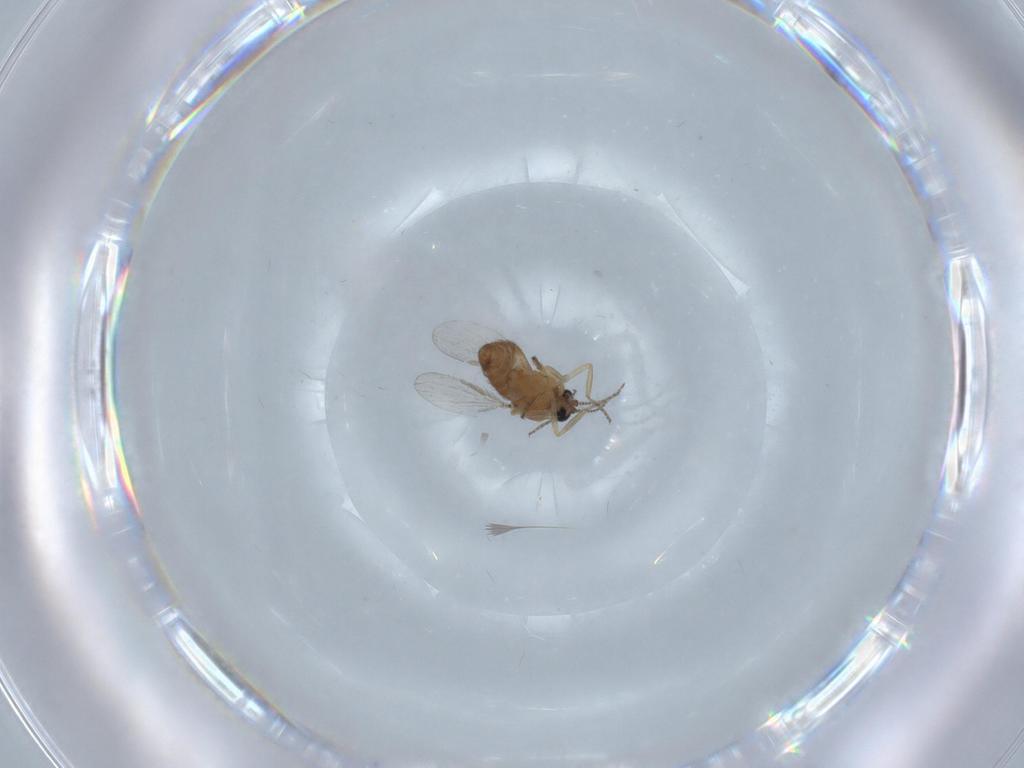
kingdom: Animalia
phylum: Arthropoda
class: Insecta
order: Diptera
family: Ceratopogonidae
